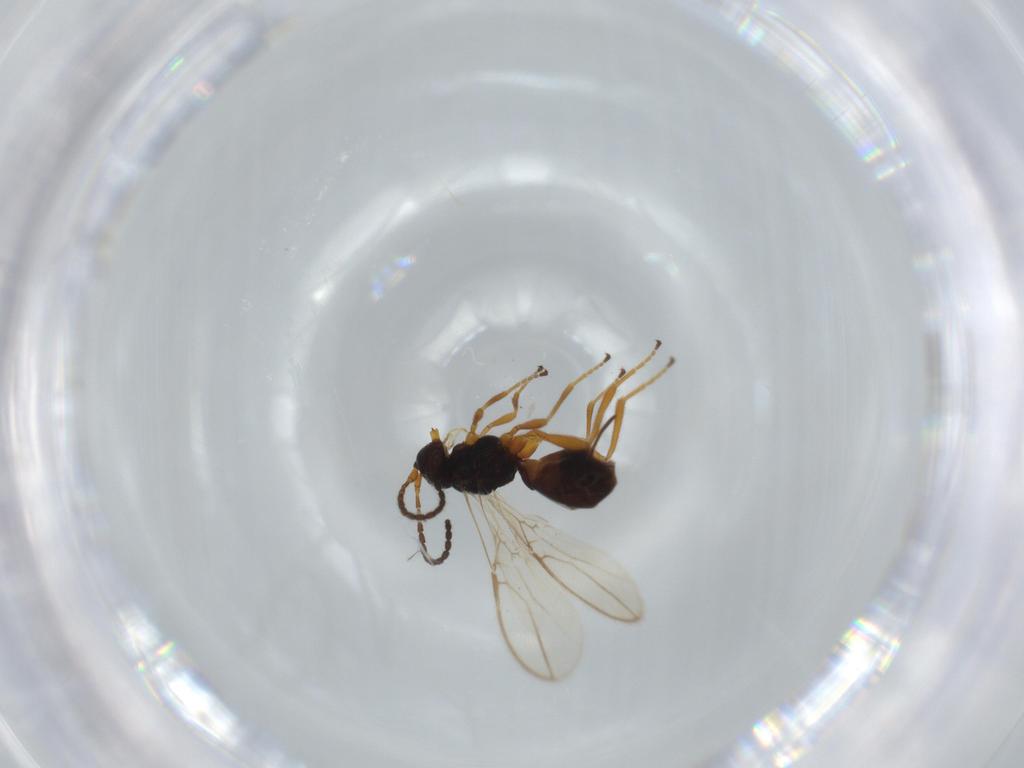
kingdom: Animalia
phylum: Arthropoda
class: Insecta
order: Hymenoptera
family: Braconidae
